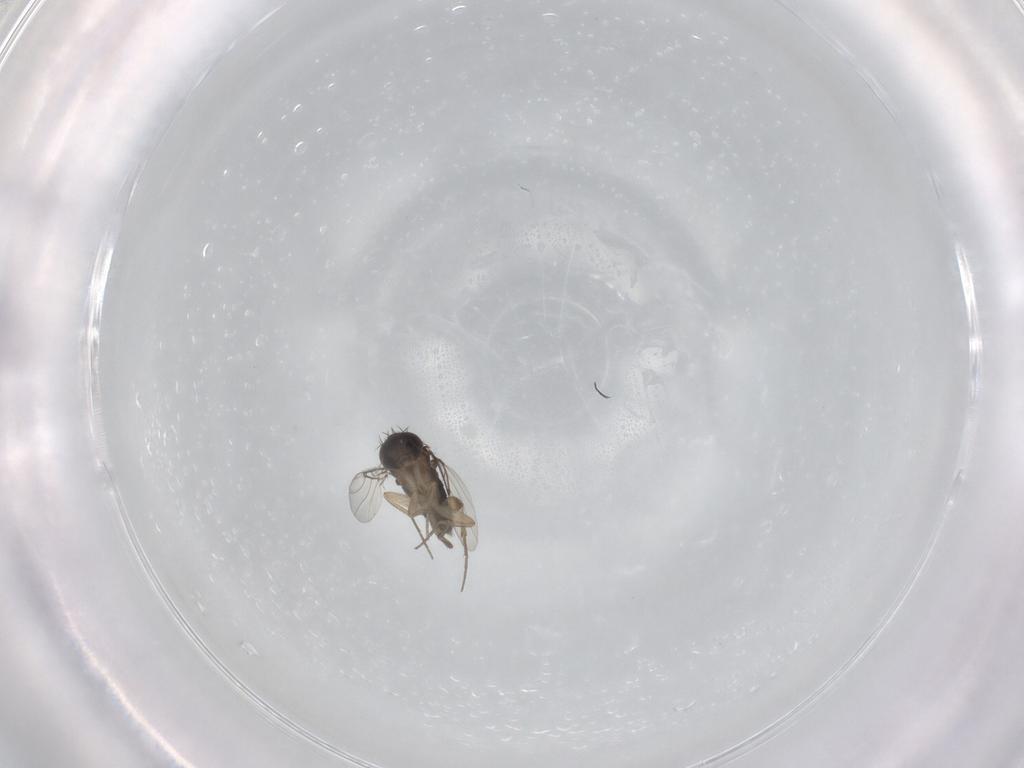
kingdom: Animalia
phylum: Arthropoda
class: Insecta
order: Diptera
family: Phoridae
